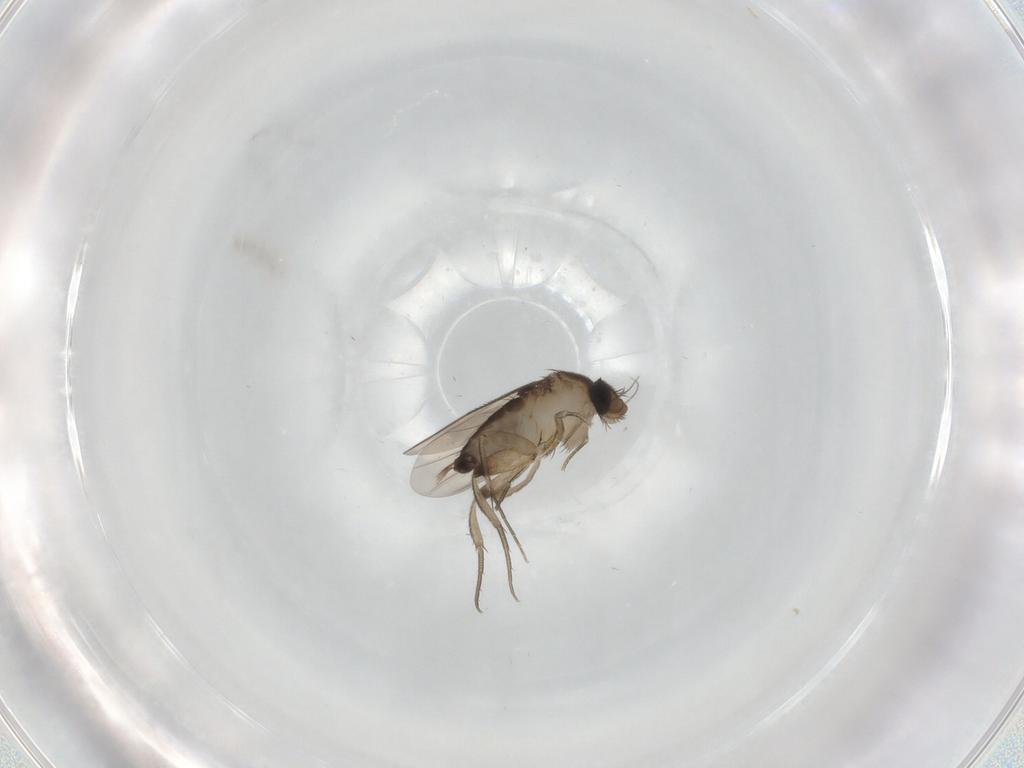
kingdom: Animalia
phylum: Arthropoda
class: Insecta
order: Diptera
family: Phoridae
